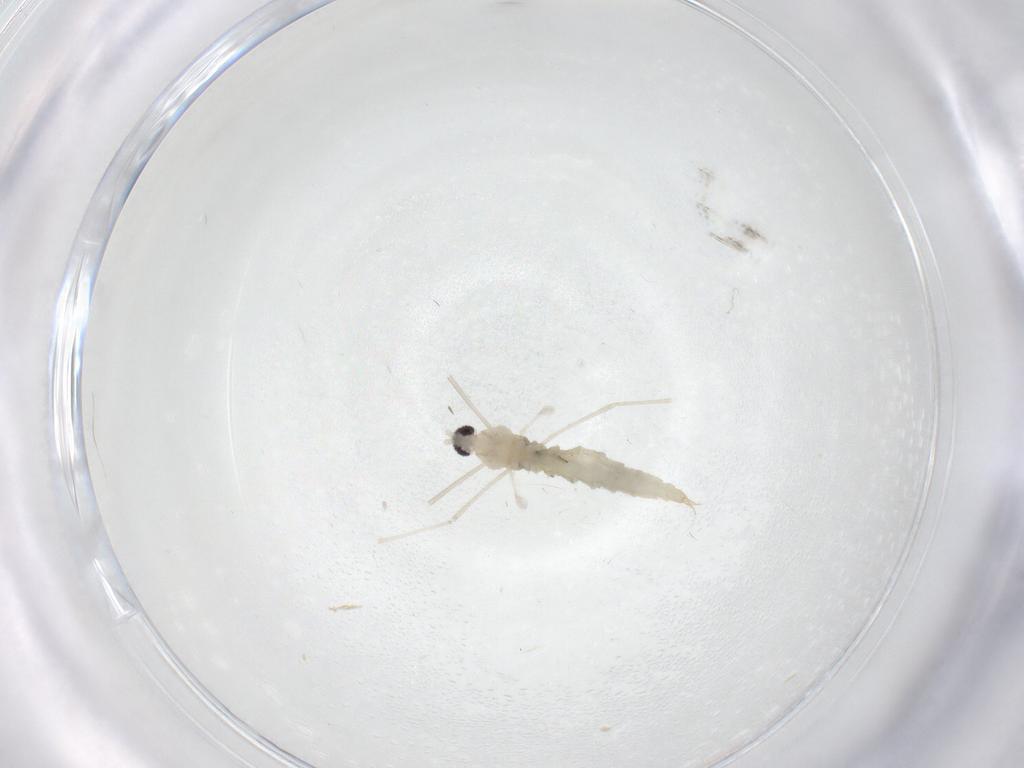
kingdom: Animalia
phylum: Arthropoda
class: Insecta
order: Diptera
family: Cecidomyiidae
